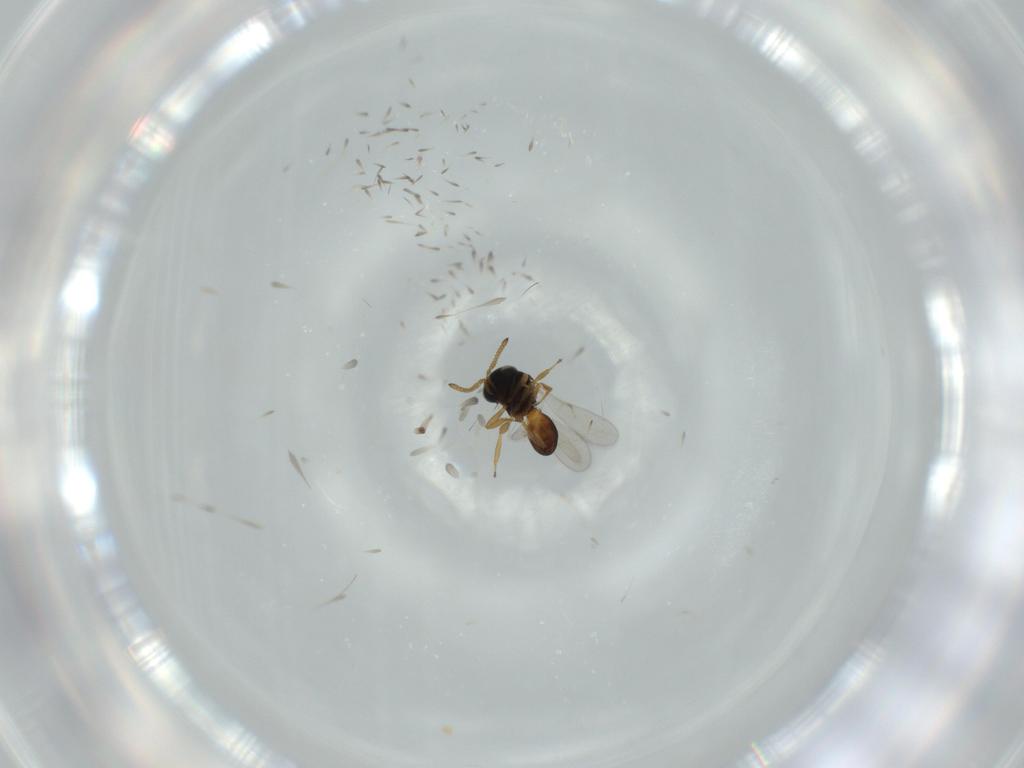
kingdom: Animalia
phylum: Arthropoda
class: Insecta
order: Hymenoptera
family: Scelionidae
